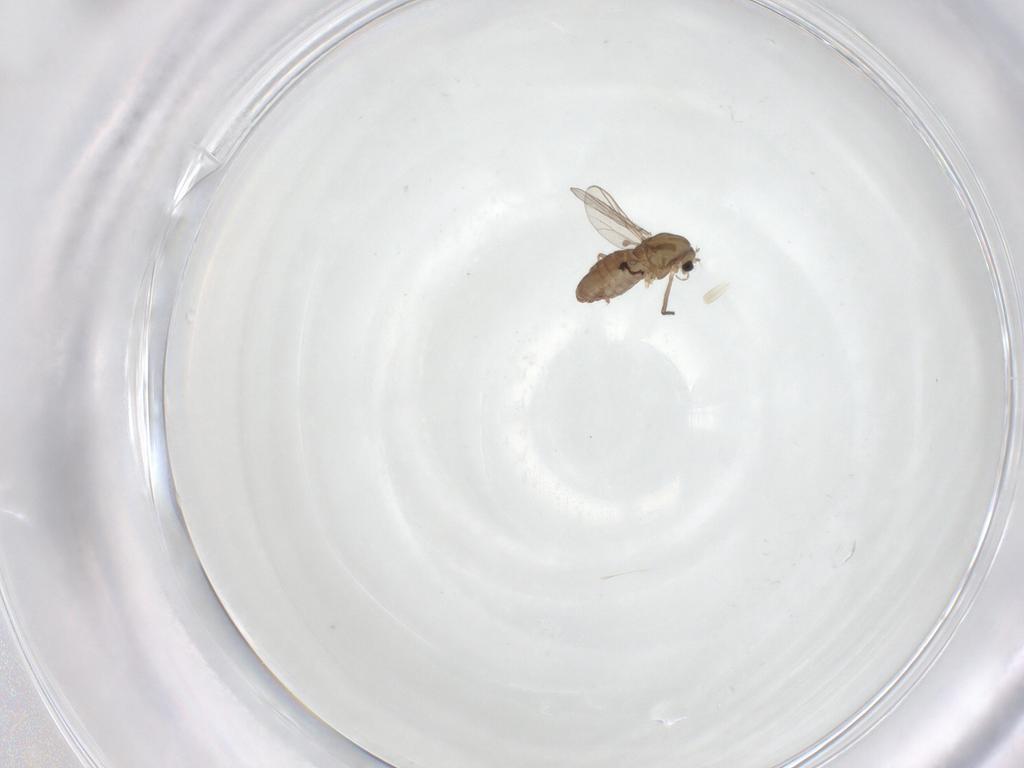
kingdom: Animalia
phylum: Arthropoda
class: Insecta
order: Diptera
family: Chironomidae
